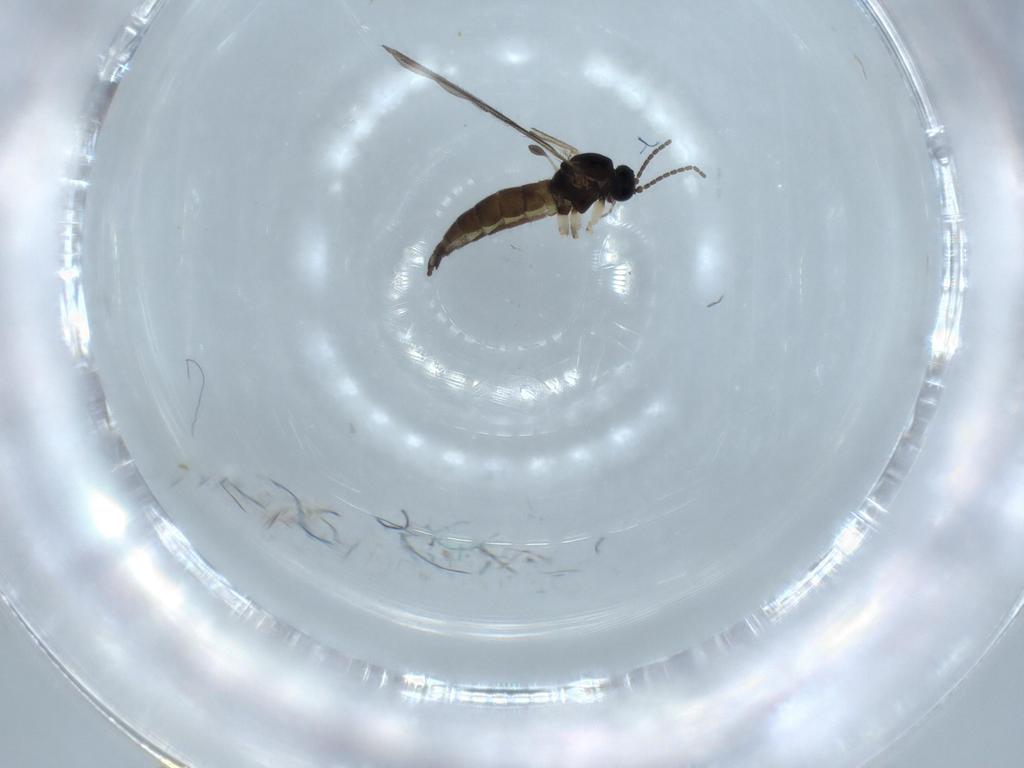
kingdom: Animalia
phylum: Arthropoda
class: Insecta
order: Diptera
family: Sciaridae
